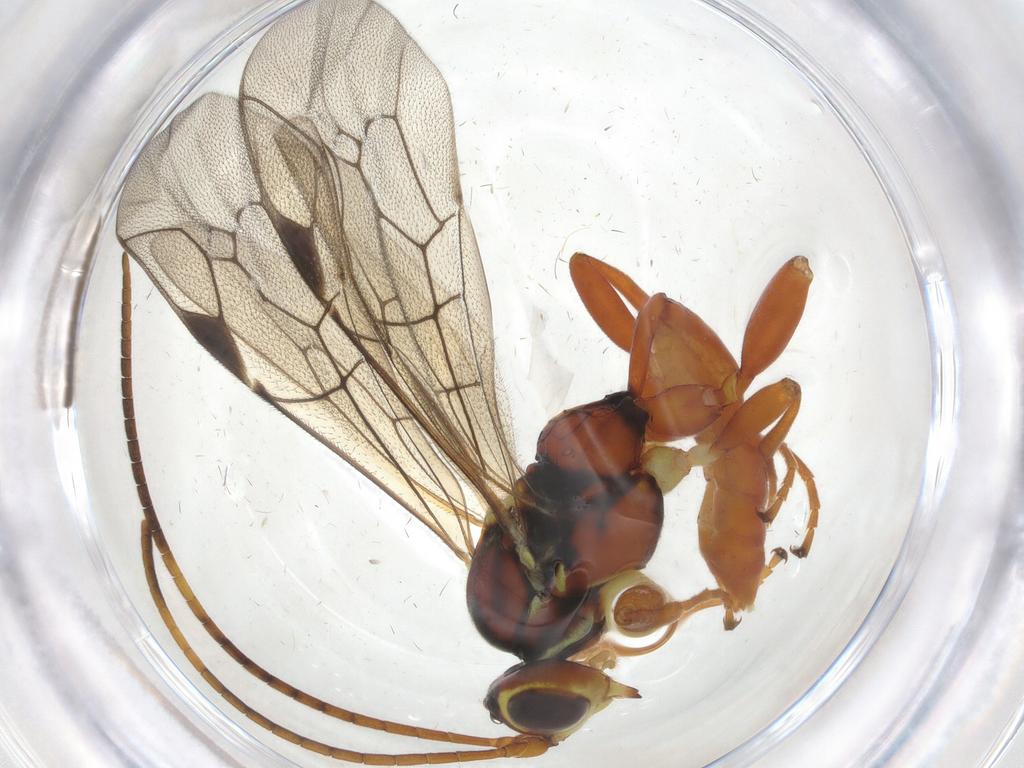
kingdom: Animalia
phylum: Arthropoda
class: Insecta
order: Hymenoptera
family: Ichneumonidae
